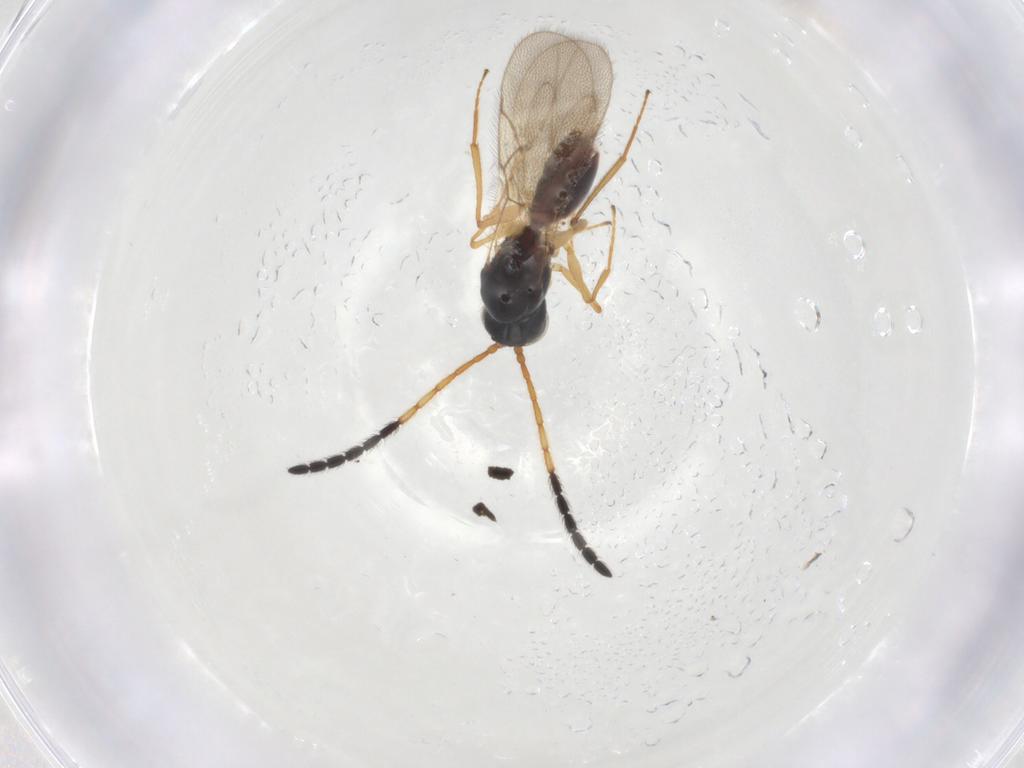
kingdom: Animalia
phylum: Arthropoda
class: Insecta
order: Hymenoptera
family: Figitidae
